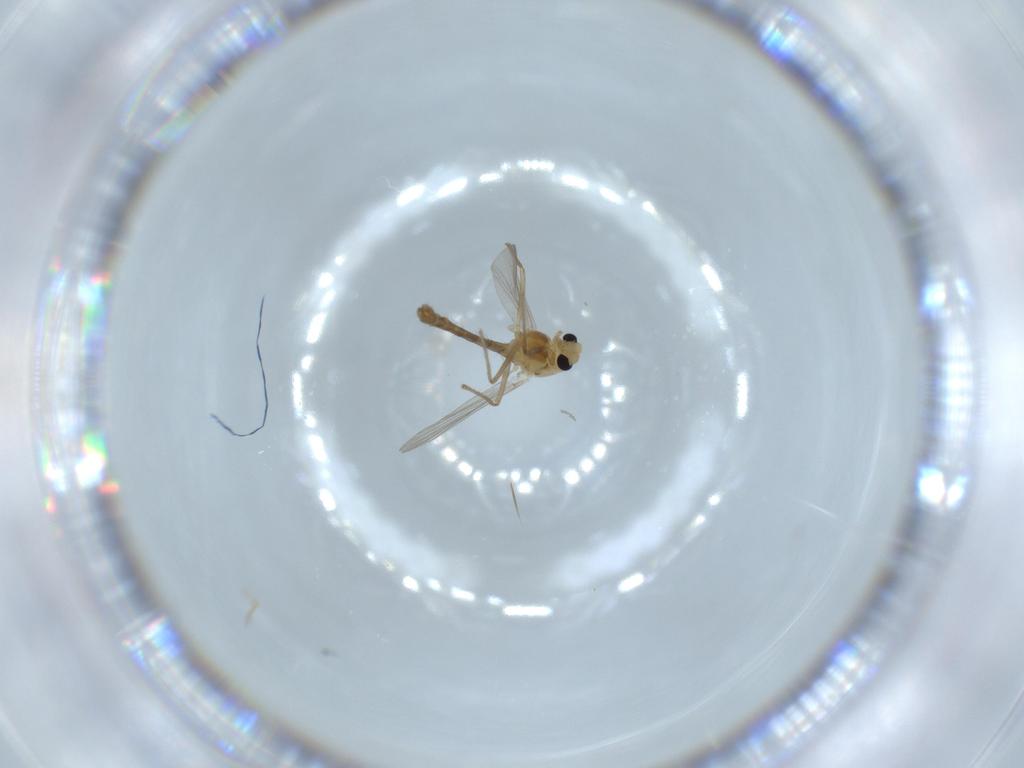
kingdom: Animalia
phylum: Arthropoda
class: Insecta
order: Diptera
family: Chironomidae
